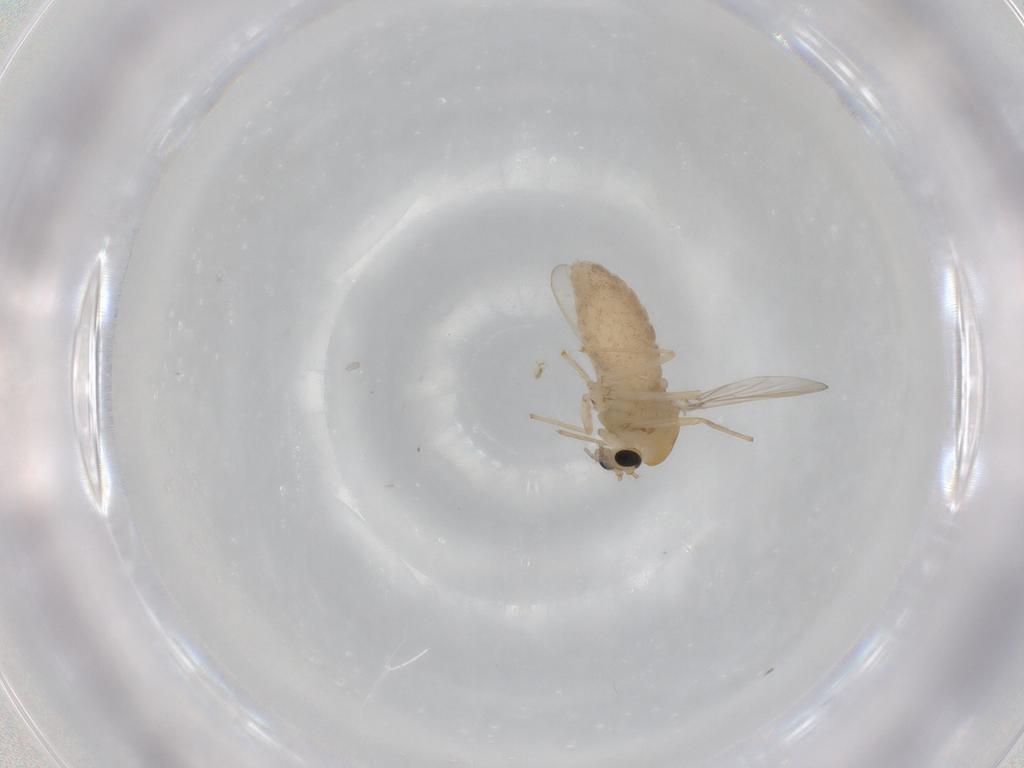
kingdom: Animalia
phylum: Arthropoda
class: Insecta
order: Diptera
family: Chironomidae
